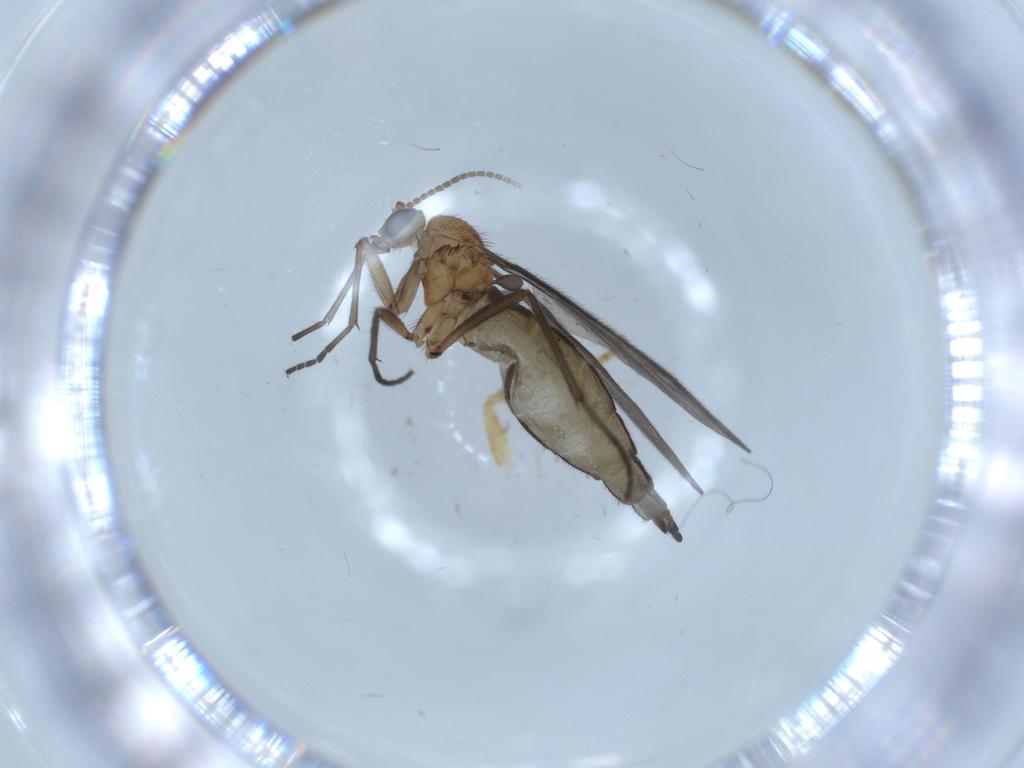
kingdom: Animalia
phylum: Arthropoda
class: Insecta
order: Diptera
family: Sciaridae
